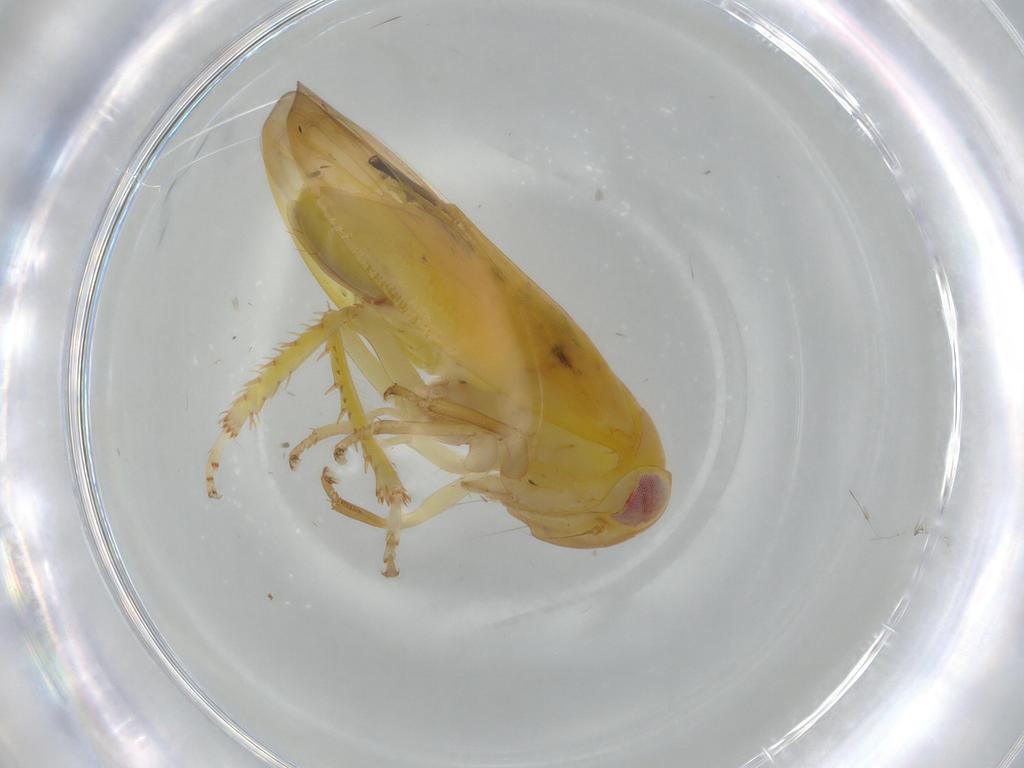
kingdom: Animalia
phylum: Arthropoda
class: Insecta
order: Hemiptera
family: Cicadellidae
